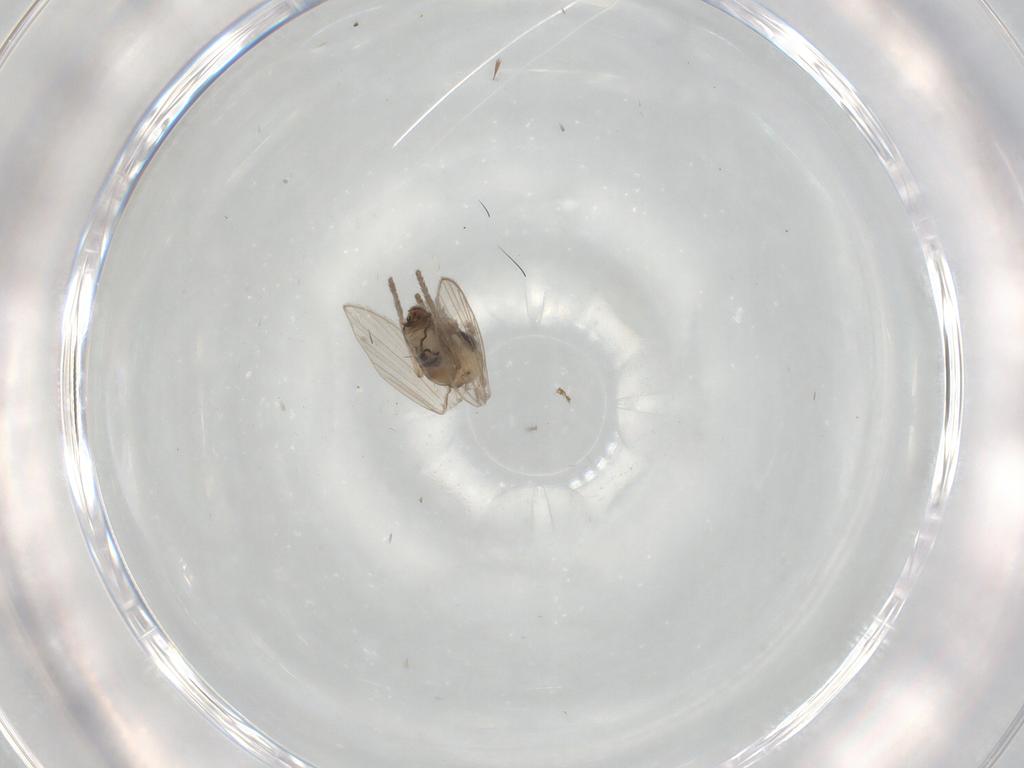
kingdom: Animalia
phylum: Arthropoda
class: Insecta
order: Diptera
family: Psychodidae
